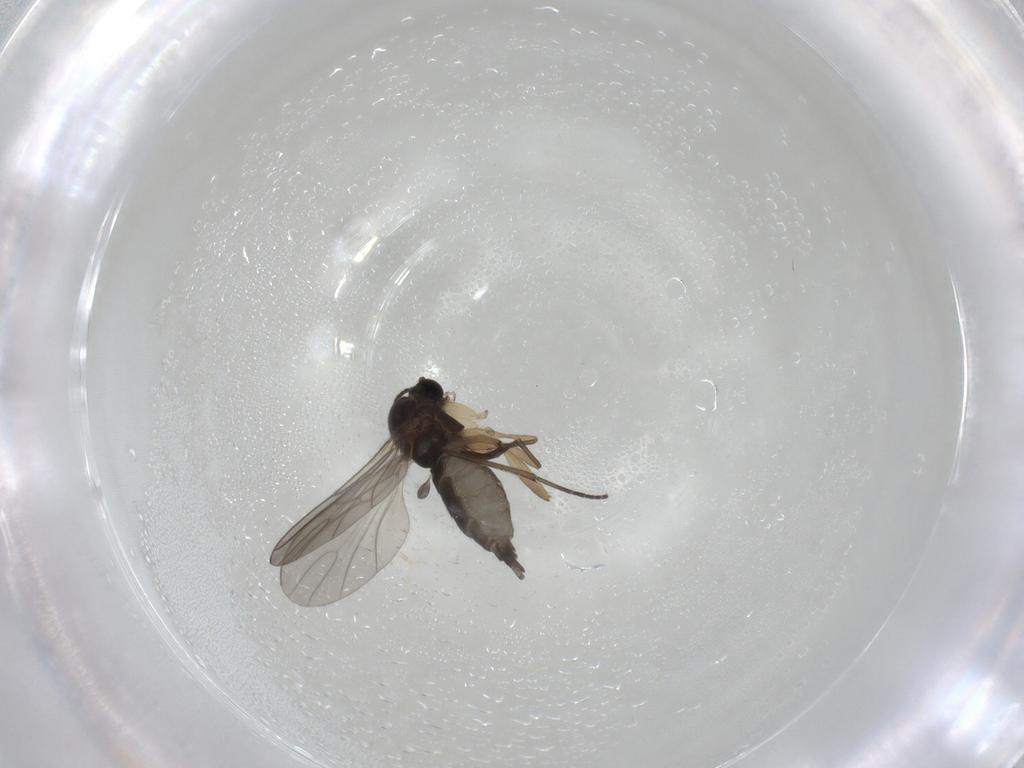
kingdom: Animalia
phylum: Arthropoda
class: Insecta
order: Diptera
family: Sciaridae
